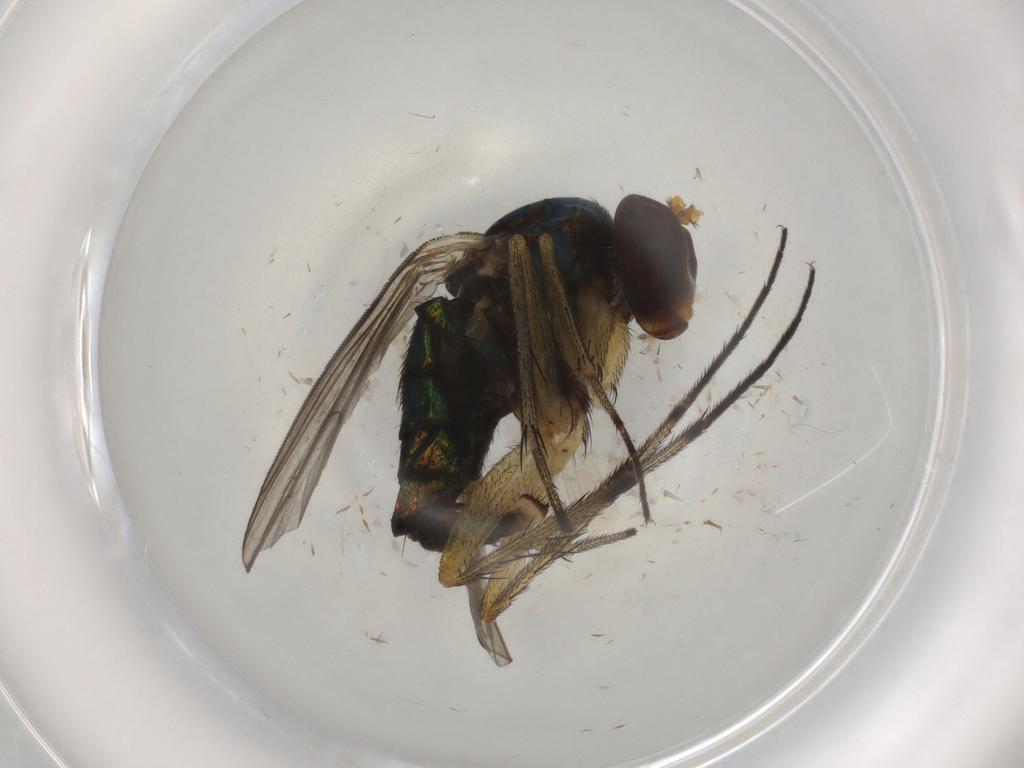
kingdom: Animalia
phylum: Arthropoda
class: Insecta
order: Diptera
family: Dolichopodidae
